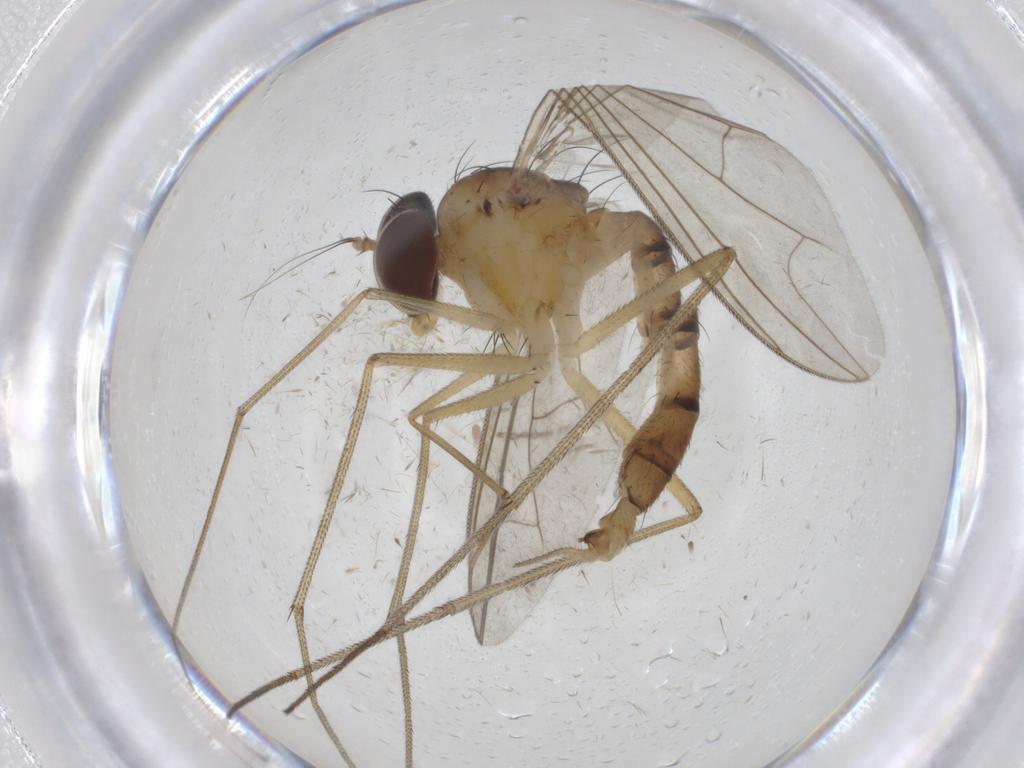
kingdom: Animalia
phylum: Arthropoda
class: Insecta
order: Diptera
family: Dolichopodidae
